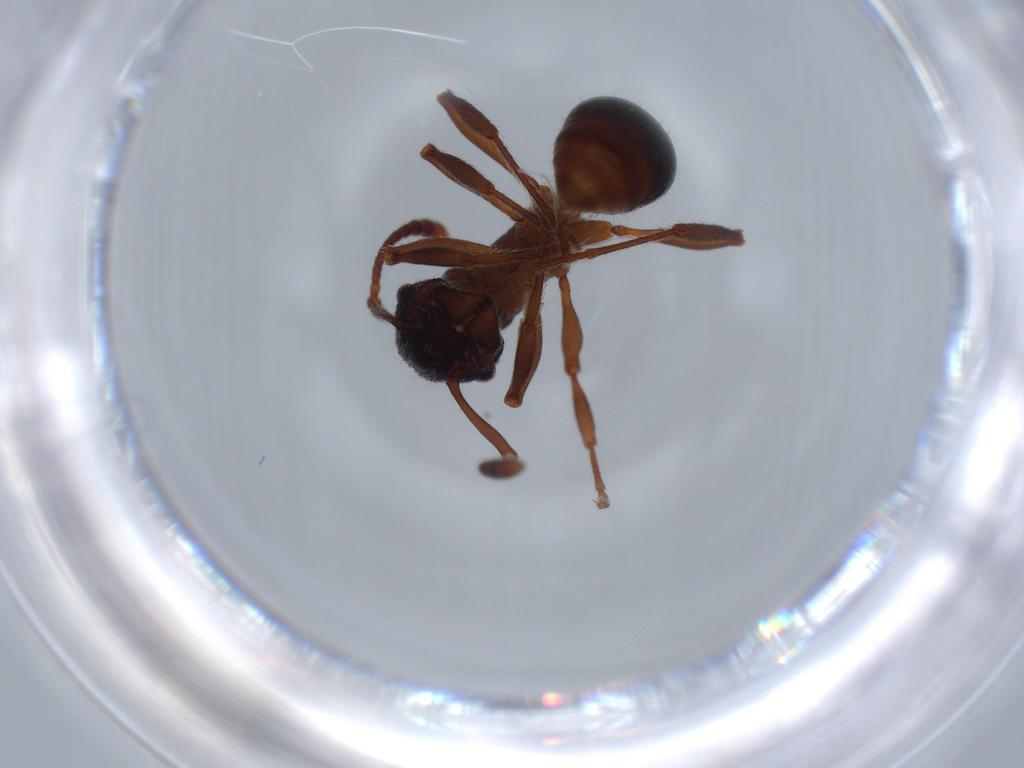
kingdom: Animalia
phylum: Arthropoda
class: Insecta
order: Hymenoptera
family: Formicidae
